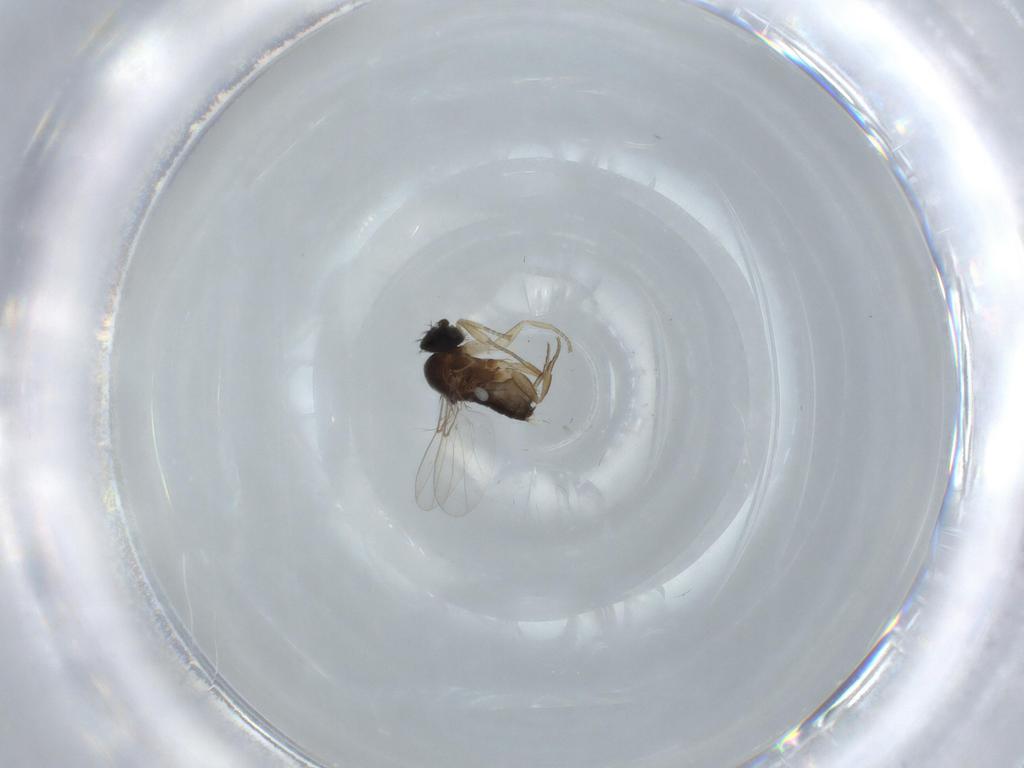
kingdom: Animalia
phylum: Arthropoda
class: Insecta
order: Diptera
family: Phoridae
